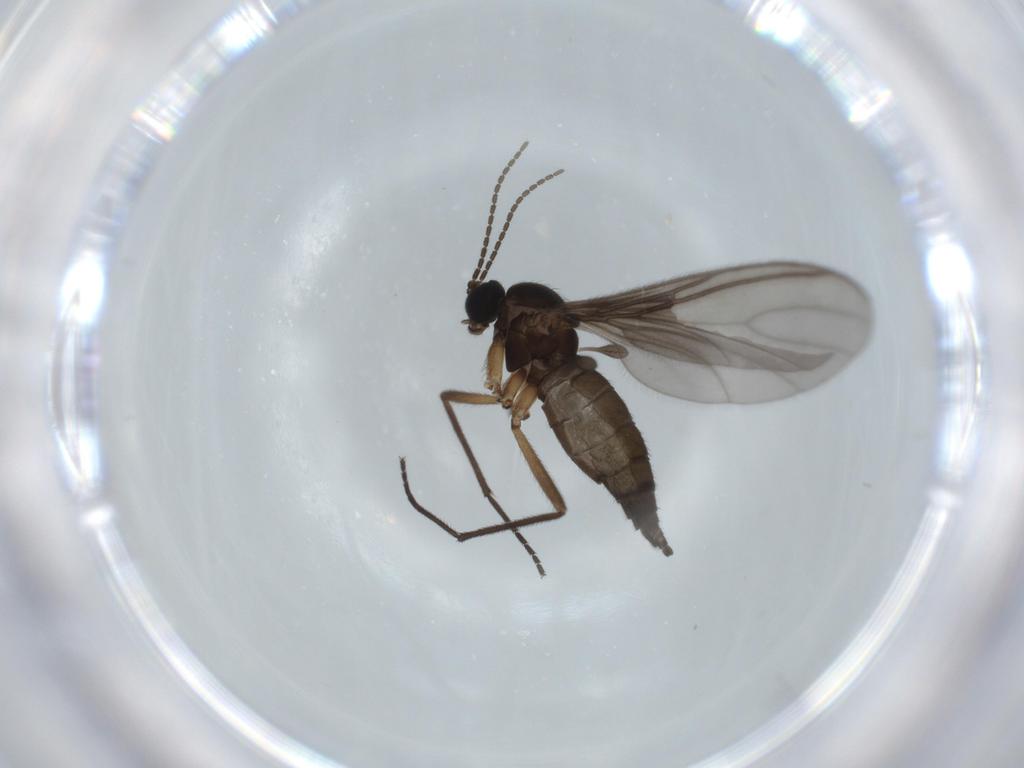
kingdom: Animalia
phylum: Arthropoda
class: Insecta
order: Diptera
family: Sciaridae
